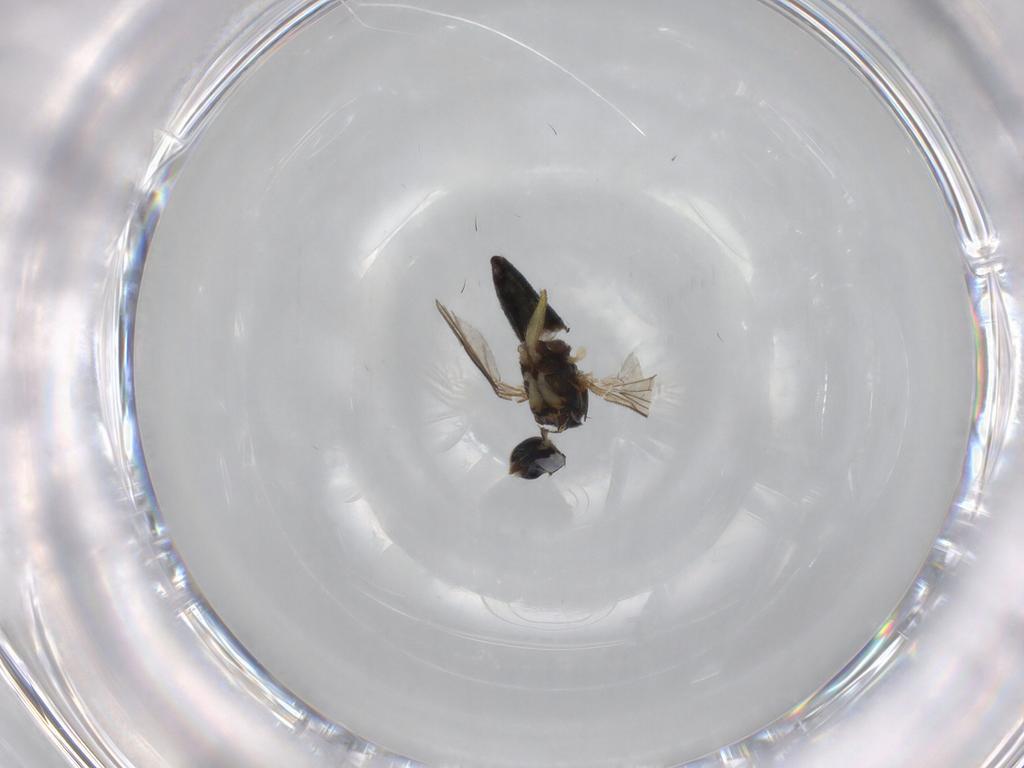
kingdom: Animalia
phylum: Arthropoda
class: Insecta
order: Diptera
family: Dolichopodidae
